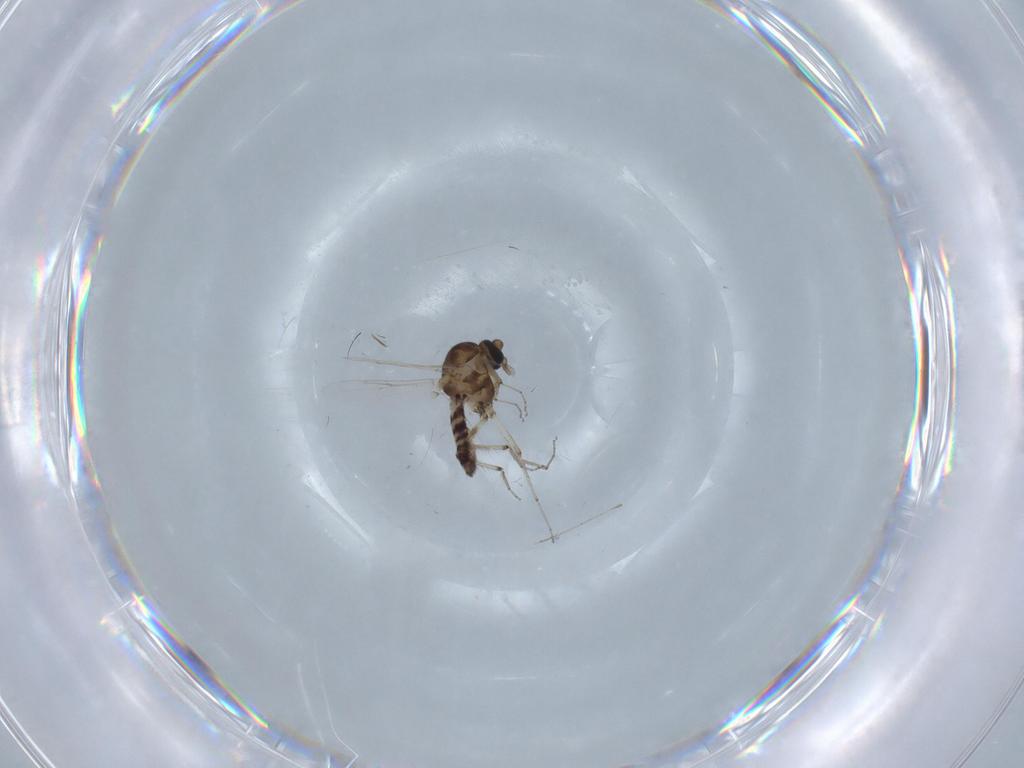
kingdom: Animalia
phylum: Arthropoda
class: Insecta
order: Diptera
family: Ceratopogonidae
